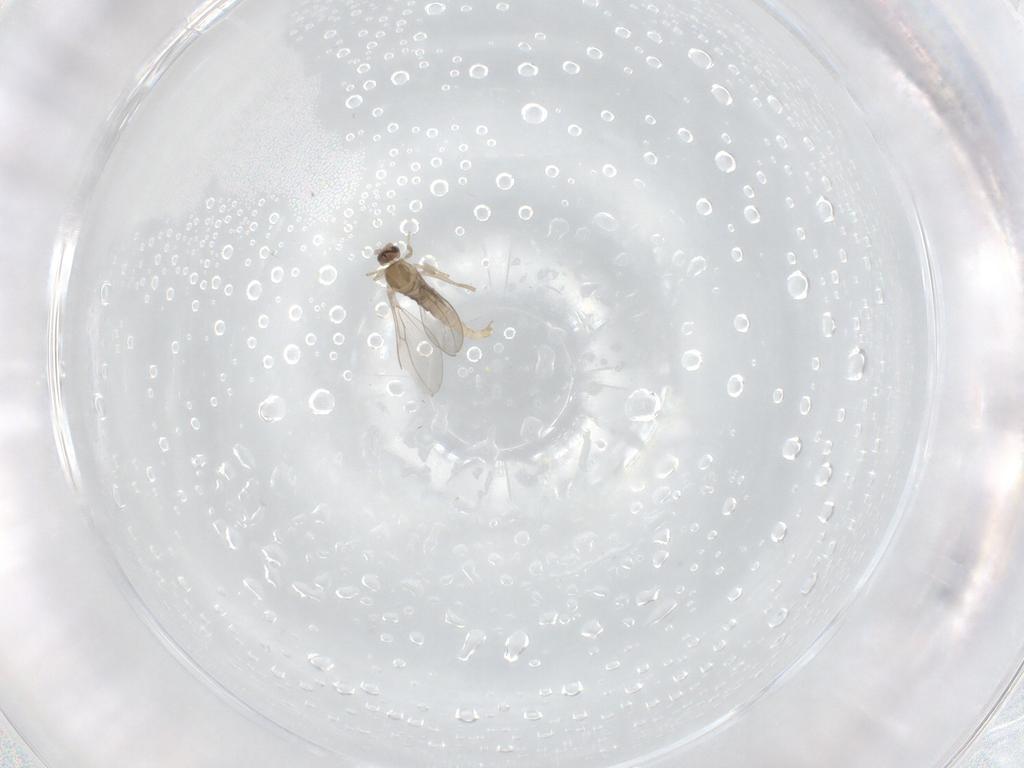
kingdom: Animalia
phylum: Arthropoda
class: Insecta
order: Diptera
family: Cecidomyiidae
